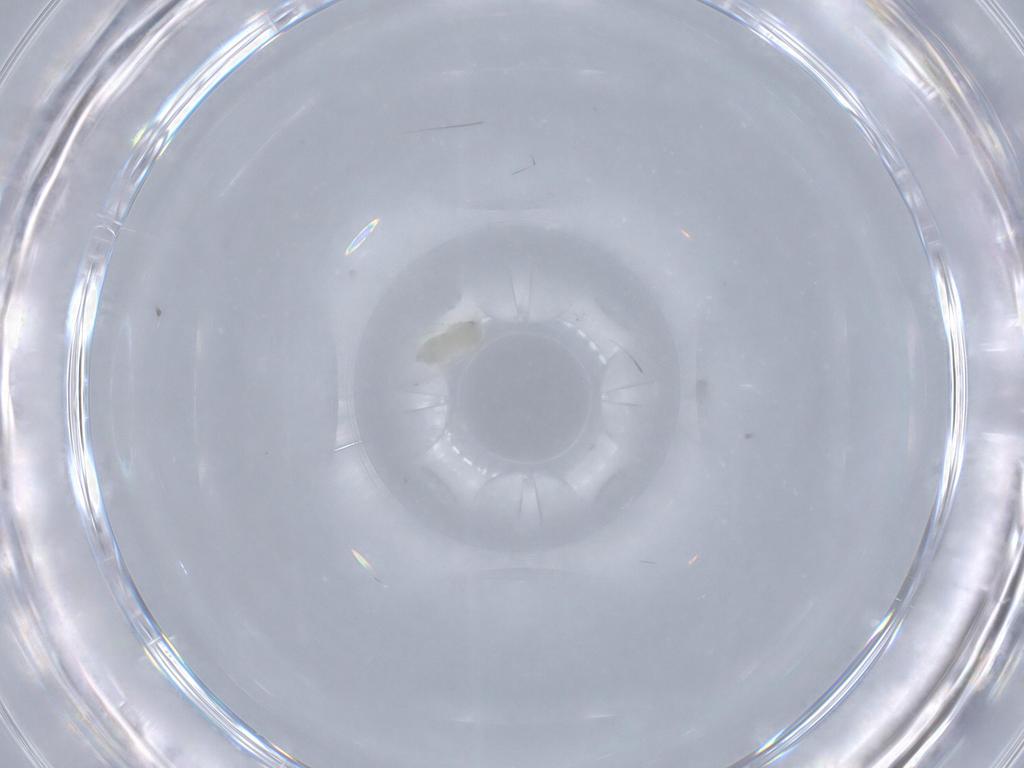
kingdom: Animalia
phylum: Arthropoda
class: Insecta
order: Hemiptera
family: Aleyrodidae
